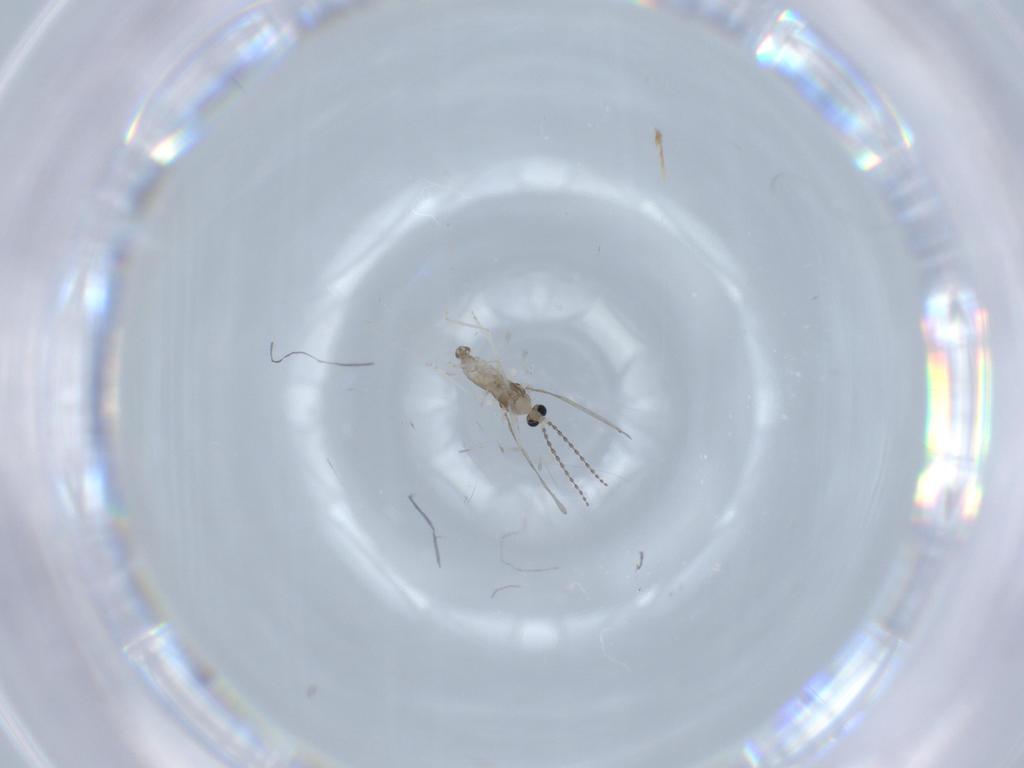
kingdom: Animalia
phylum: Arthropoda
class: Insecta
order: Diptera
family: Cecidomyiidae
